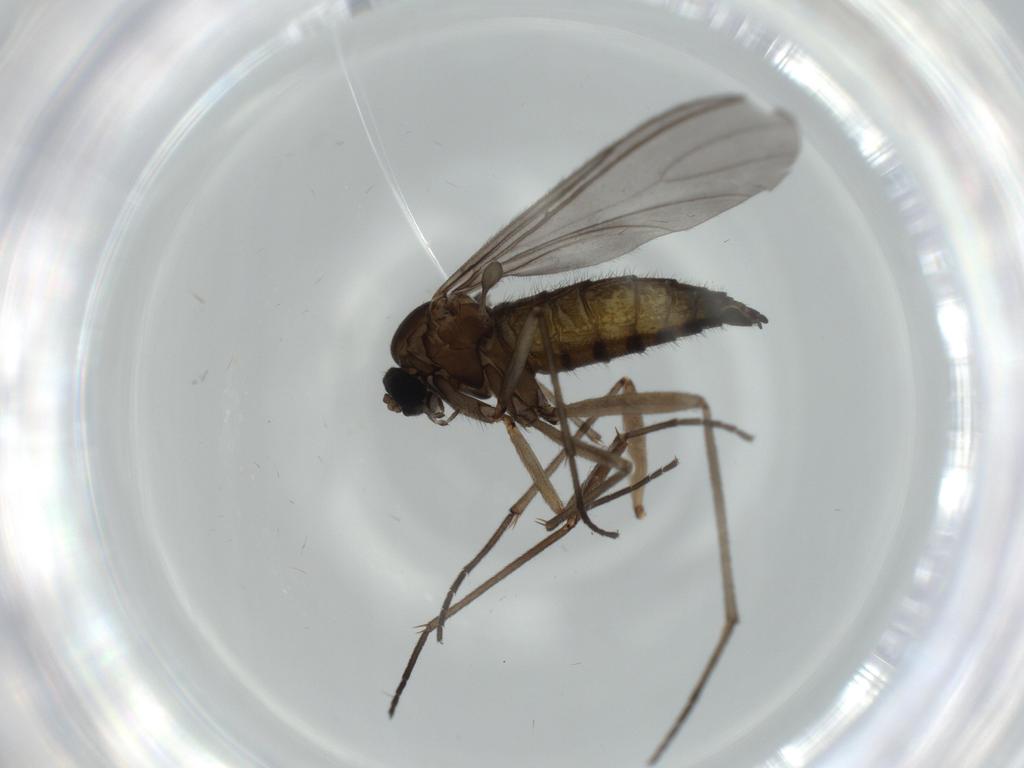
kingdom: Animalia
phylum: Arthropoda
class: Insecta
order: Diptera
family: Sciaridae
